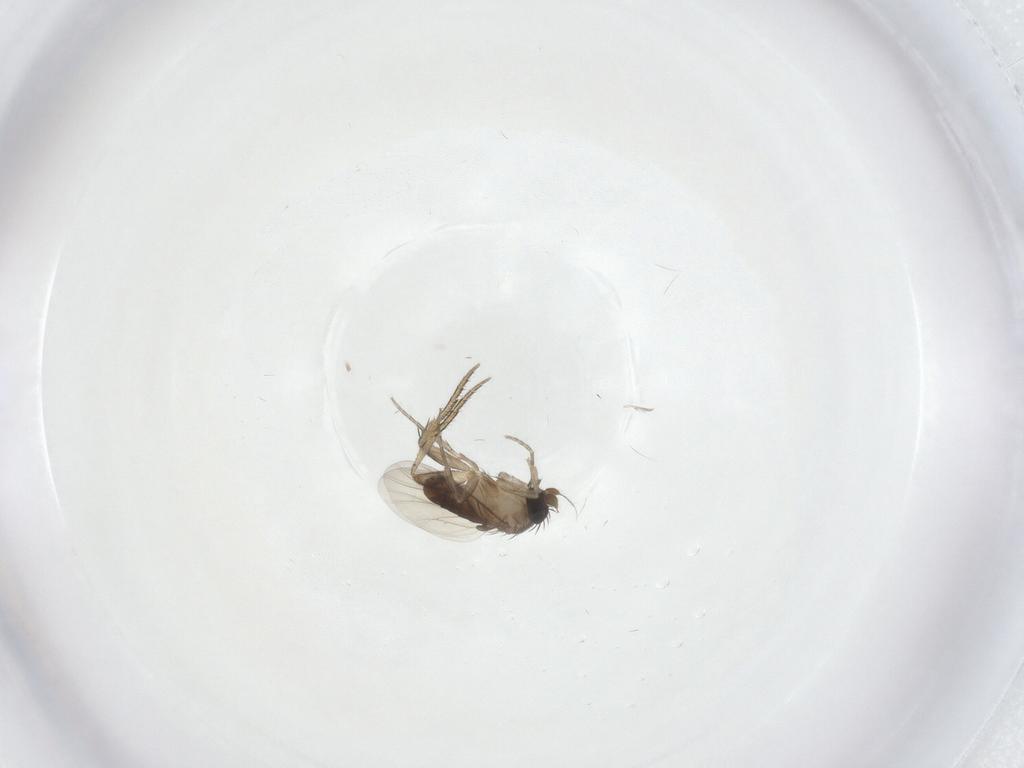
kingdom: Animalia
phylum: Arthropoda
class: Insecta
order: Diptera
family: Phoridae
